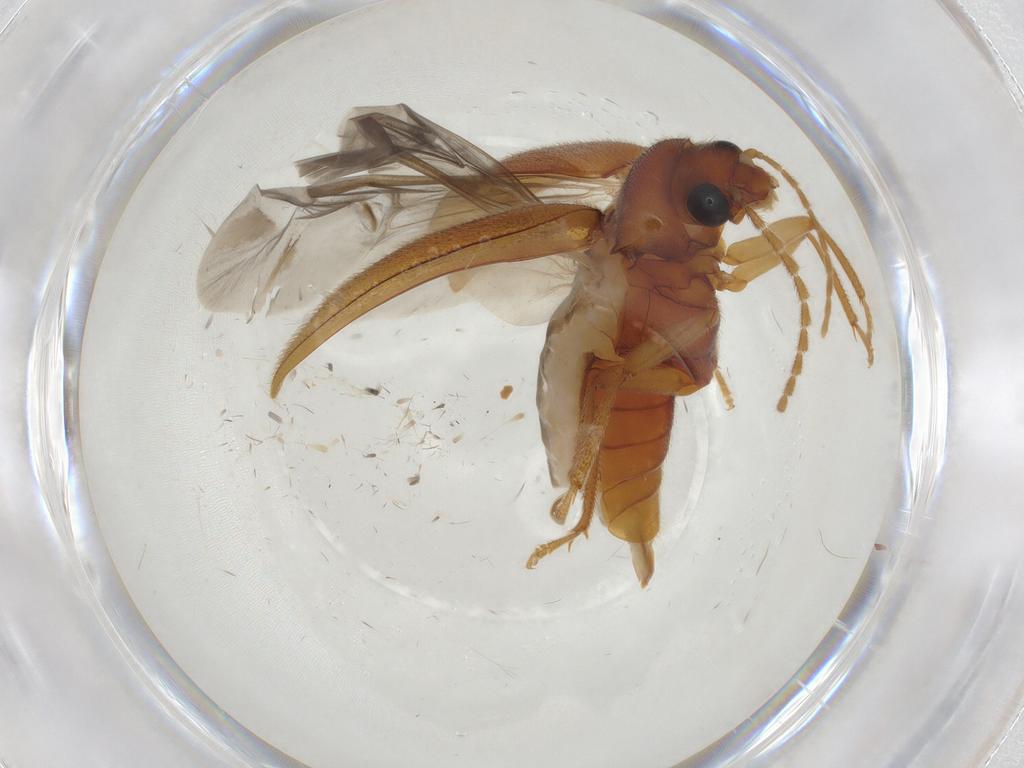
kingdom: Animalia
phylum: Arthropoda
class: Insecta
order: Coleoptera
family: Ptilodactylidae
